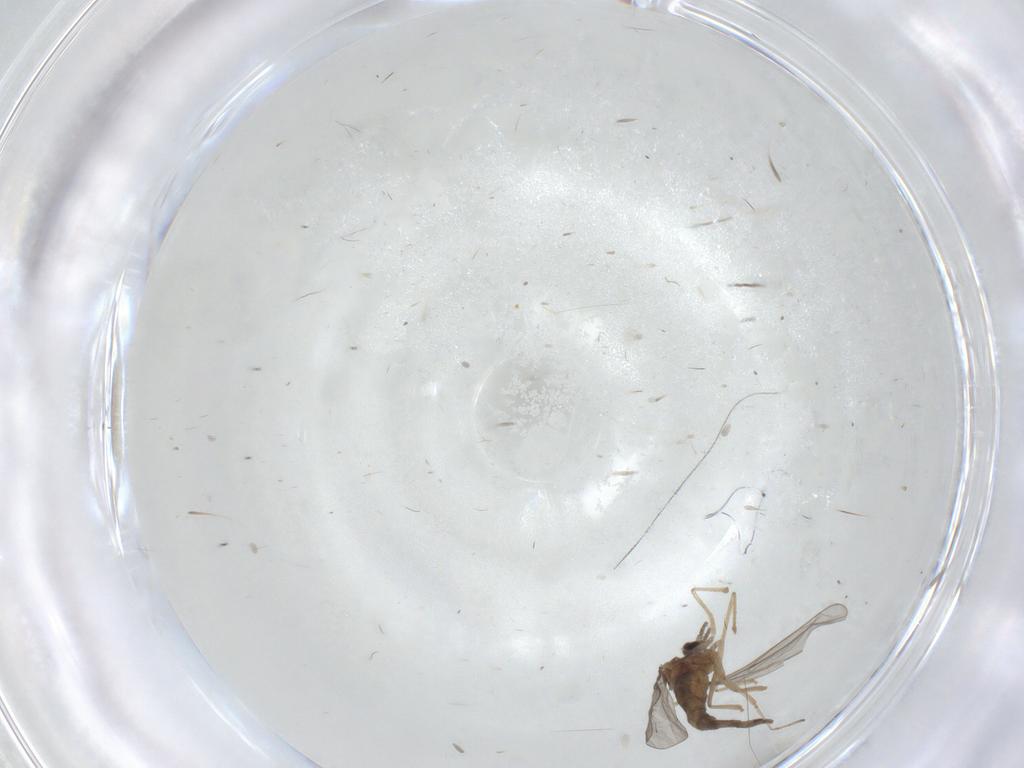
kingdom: Animalia
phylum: Arthropoda
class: Insecta
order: Diptera
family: Cecidomyiidae
